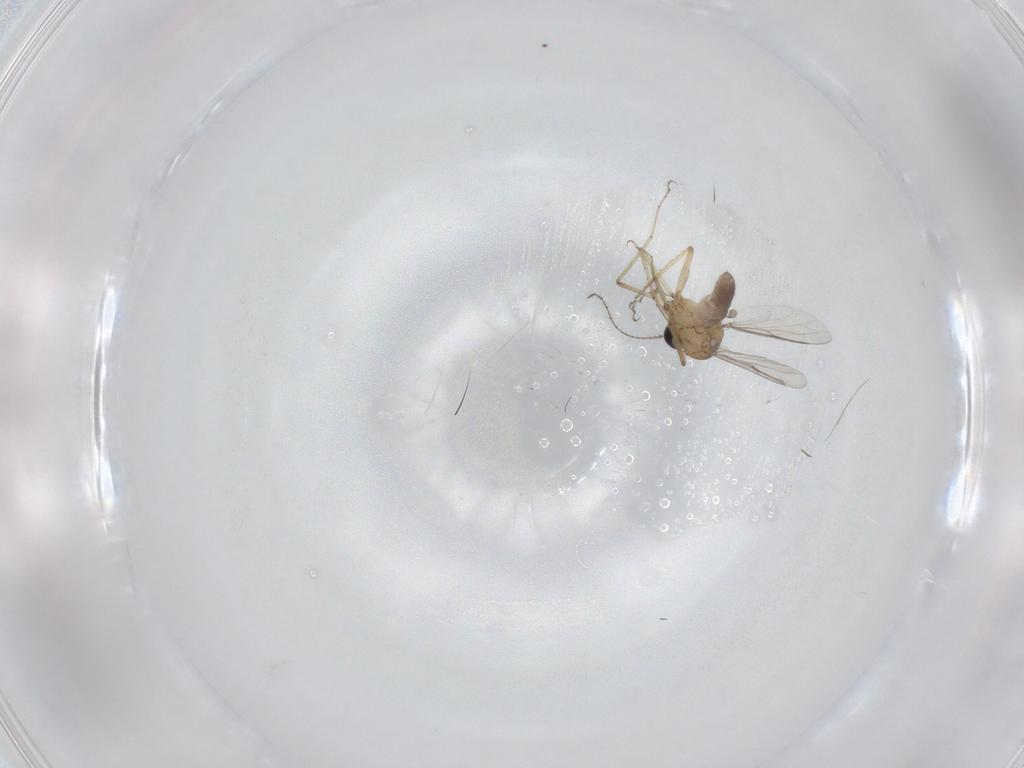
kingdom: Animalia
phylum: Arthropoda
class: Insecta
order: Diptera
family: Ceratopogonidae
